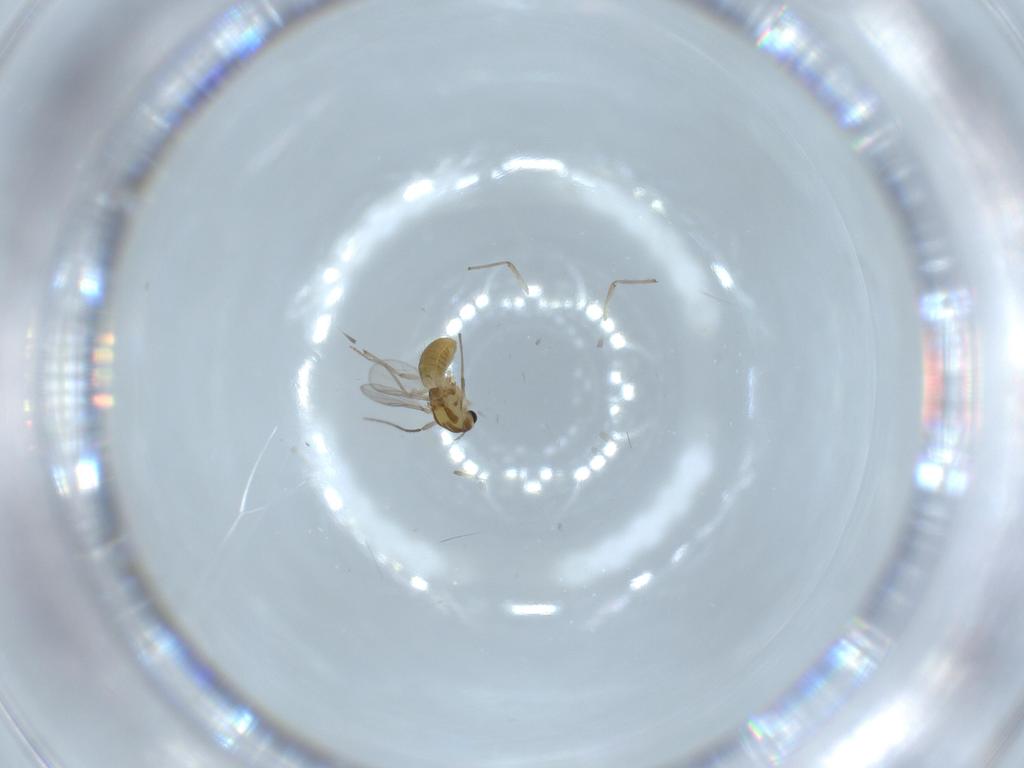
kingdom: Animalia
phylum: Arthropoda
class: Insecta
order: Diptera
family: Chironomidae
